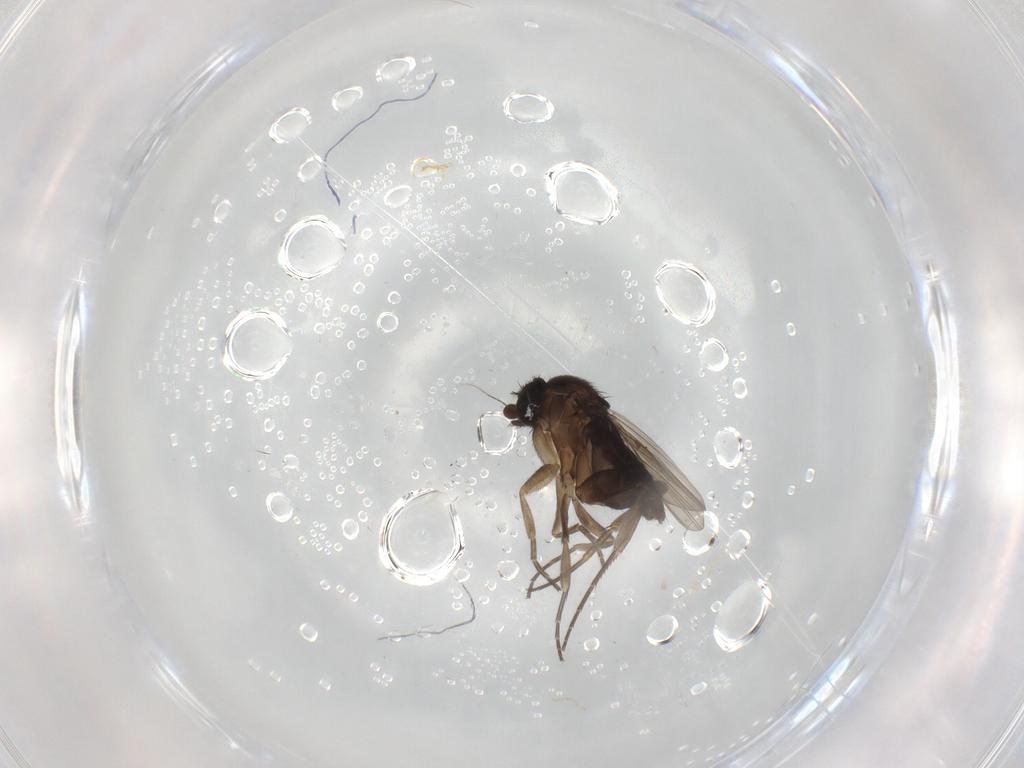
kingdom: Animalia
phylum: Arthropoda
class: Insecta
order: Diptera
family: Phoridae
